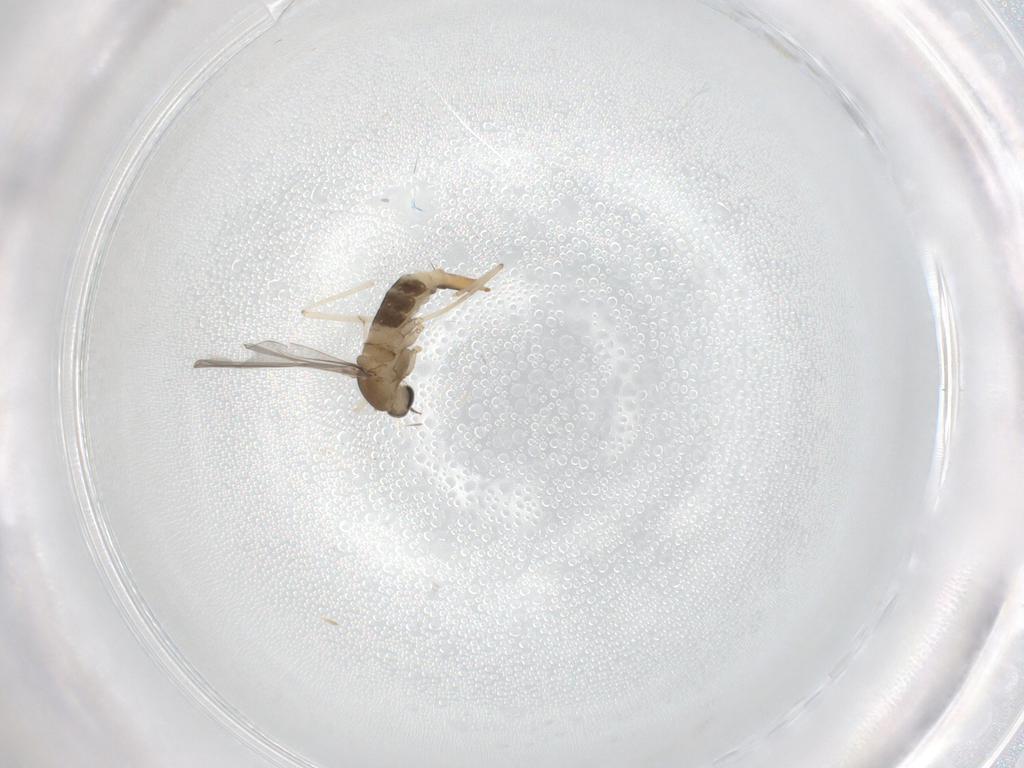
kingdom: Animalia
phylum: Arthropoda
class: Insecta
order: Diptera
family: Cecidomyiidae
